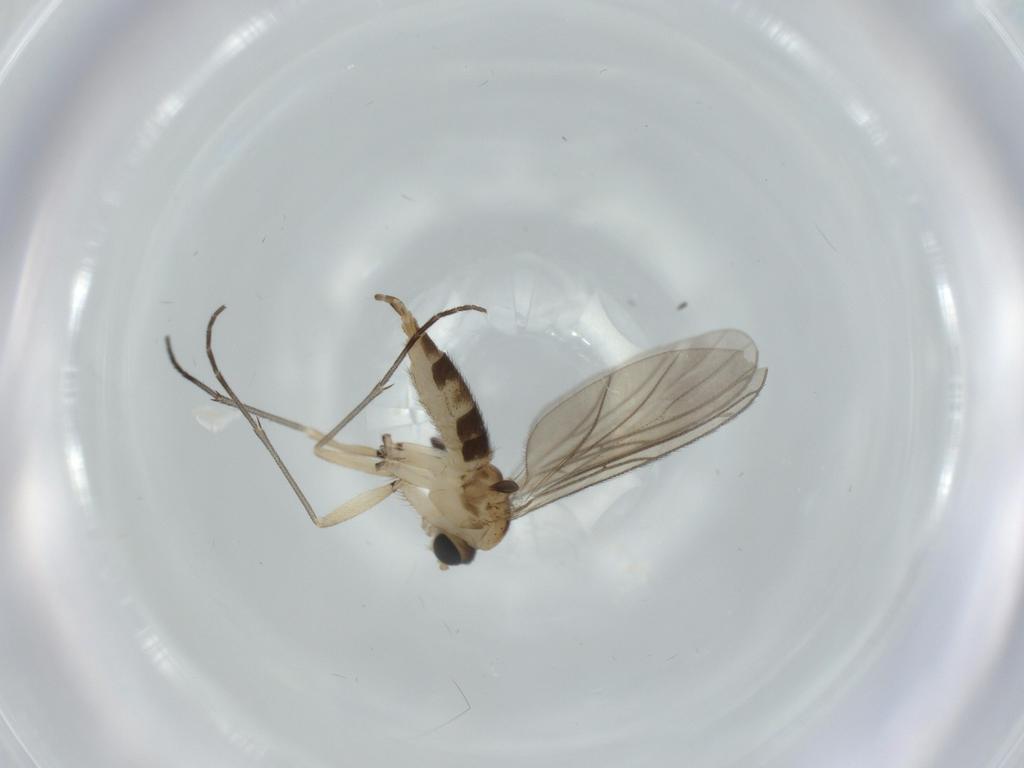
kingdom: Animalia
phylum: Arthropoda
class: Insecta
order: Diptera
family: Sciaridae
